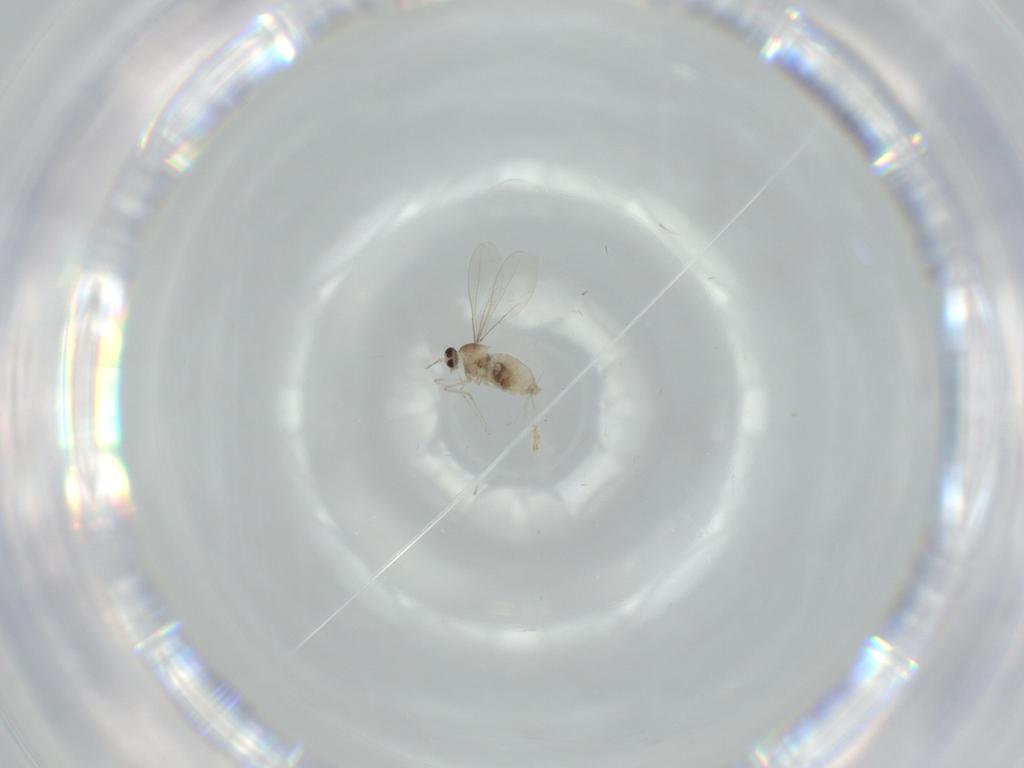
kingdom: Animalia
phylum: Arthropoda
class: Insecta
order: Diptera
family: Cecidomyiidae
